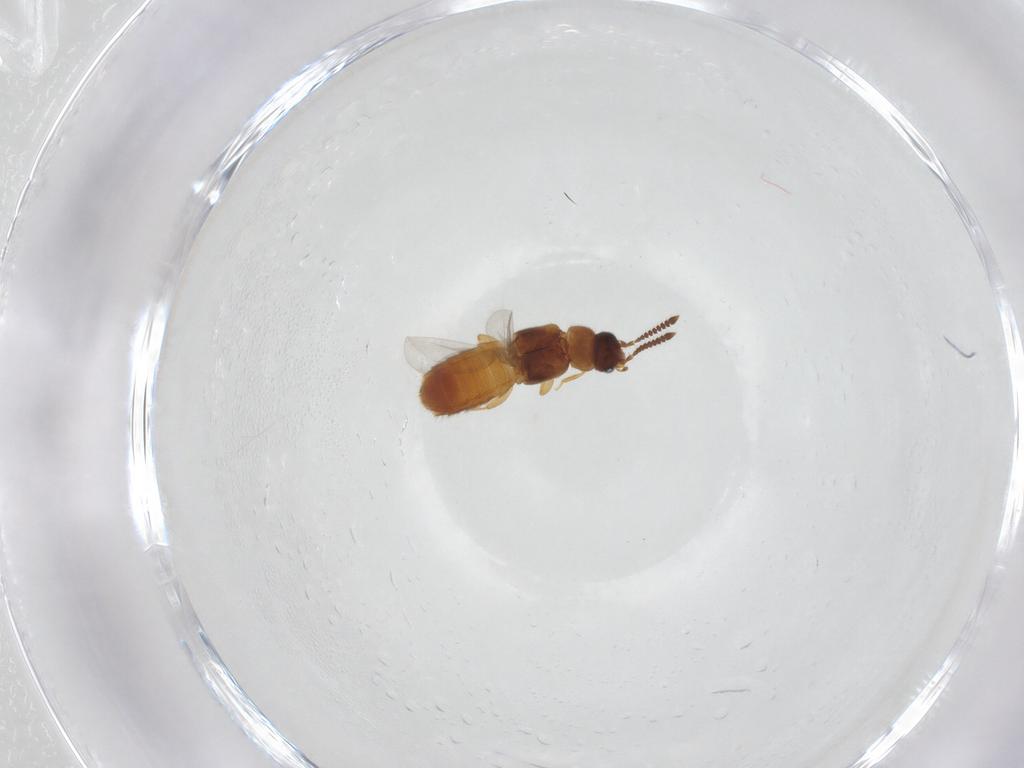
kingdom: Animalia
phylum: Arthropoda
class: Insecta
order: Coleoptera
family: Staphylinidae
